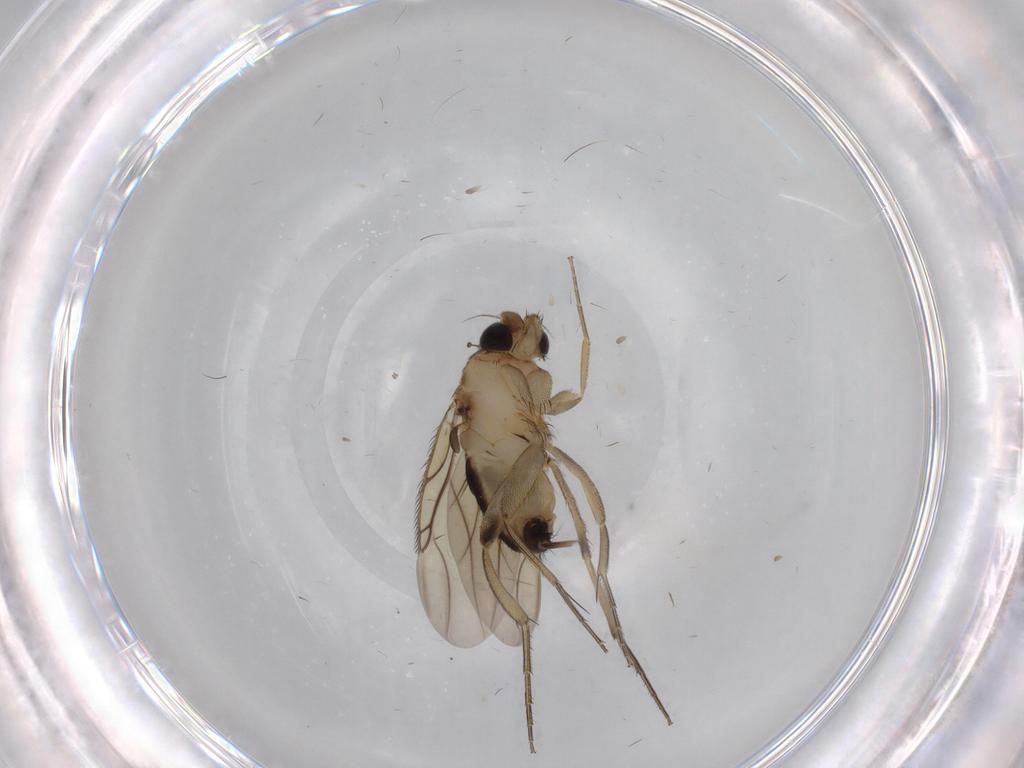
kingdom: Animalia
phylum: Arthropoda
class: Insecta
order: Diptera
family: Phoridae
